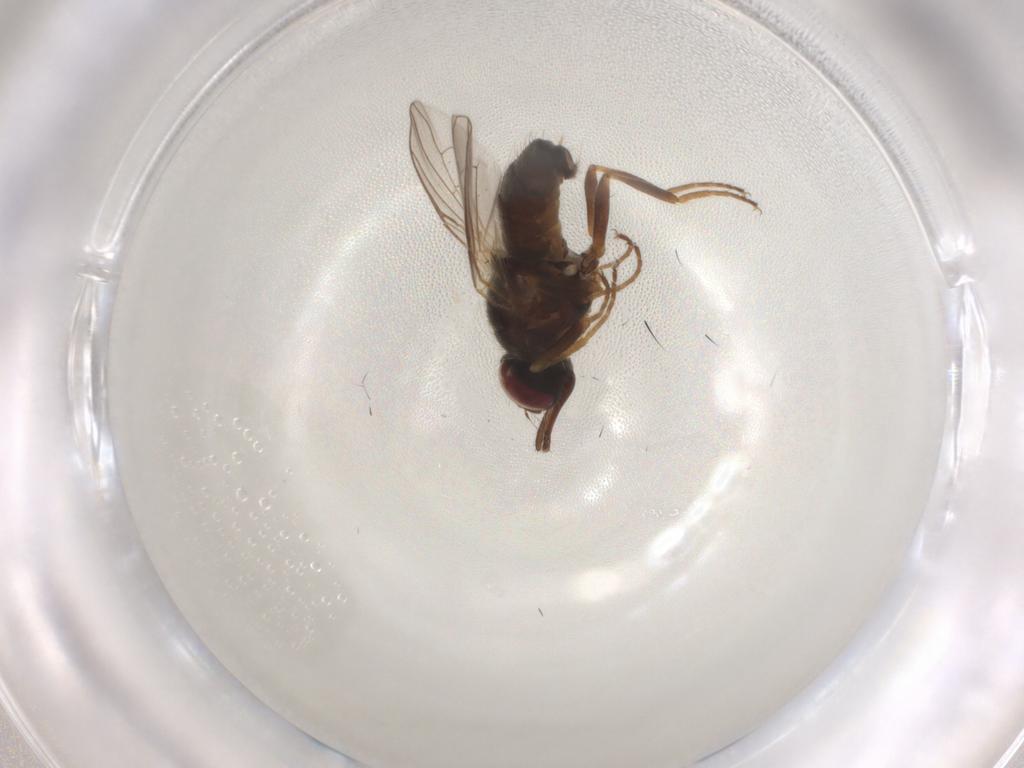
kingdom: Animalia
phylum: Arthropoda
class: Insecta
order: Diptera
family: Muscidae
